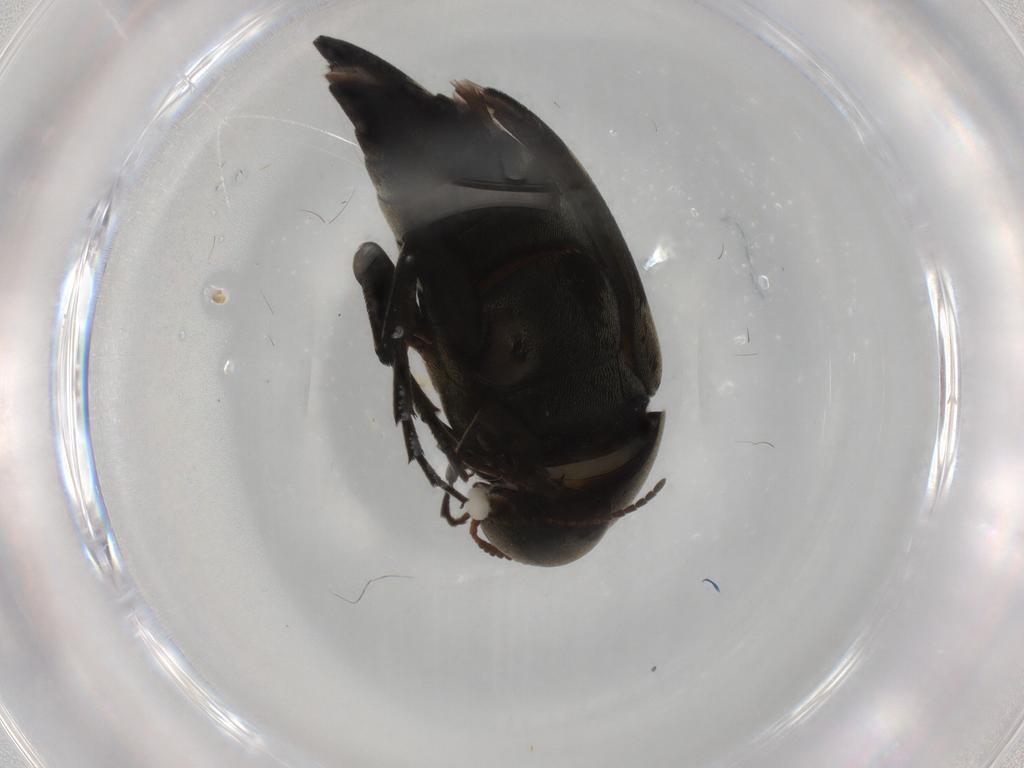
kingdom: Animalia
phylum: Arthropoda
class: Insecta
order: Coleoptera
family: Mordellidae
